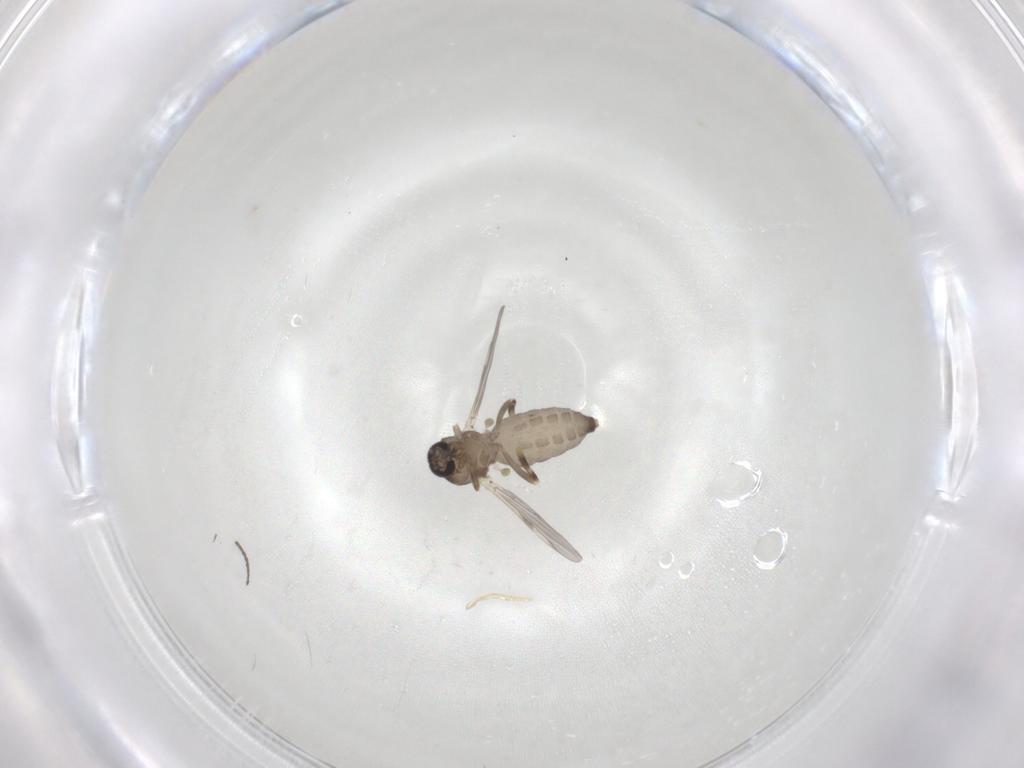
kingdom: Animalia
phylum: Arthropoda
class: Insecta
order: Diptera
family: Ceratopogonidae
